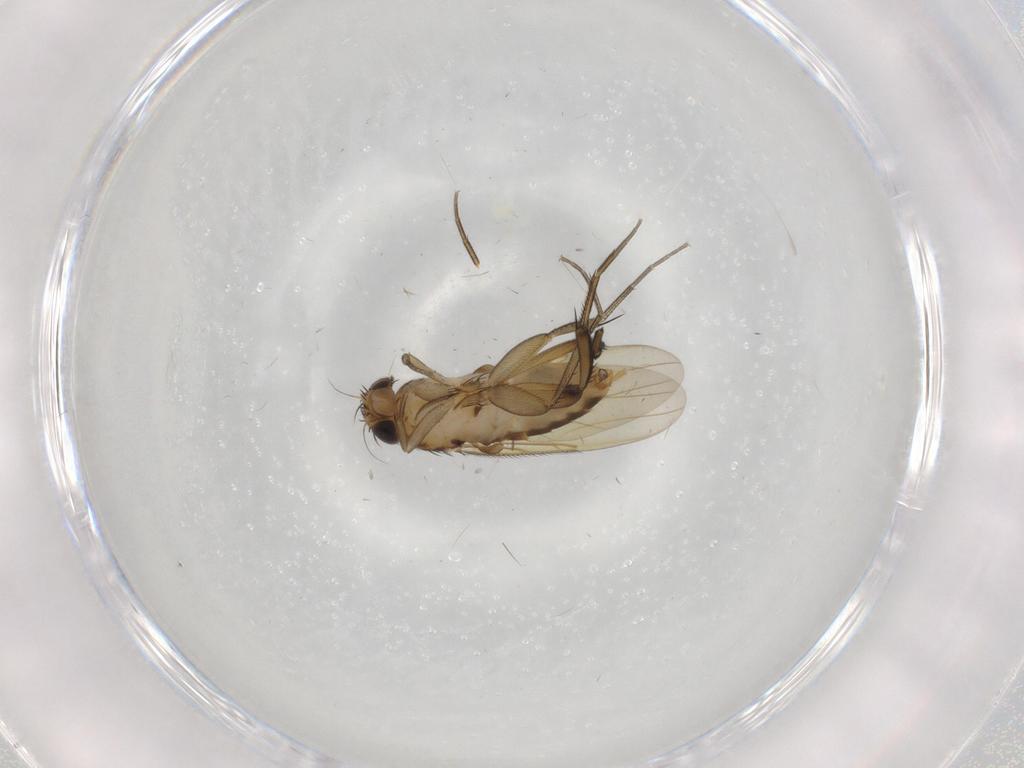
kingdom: Animalia
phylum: Arthropoda
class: Insecta
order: Diptera
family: Phoridae
